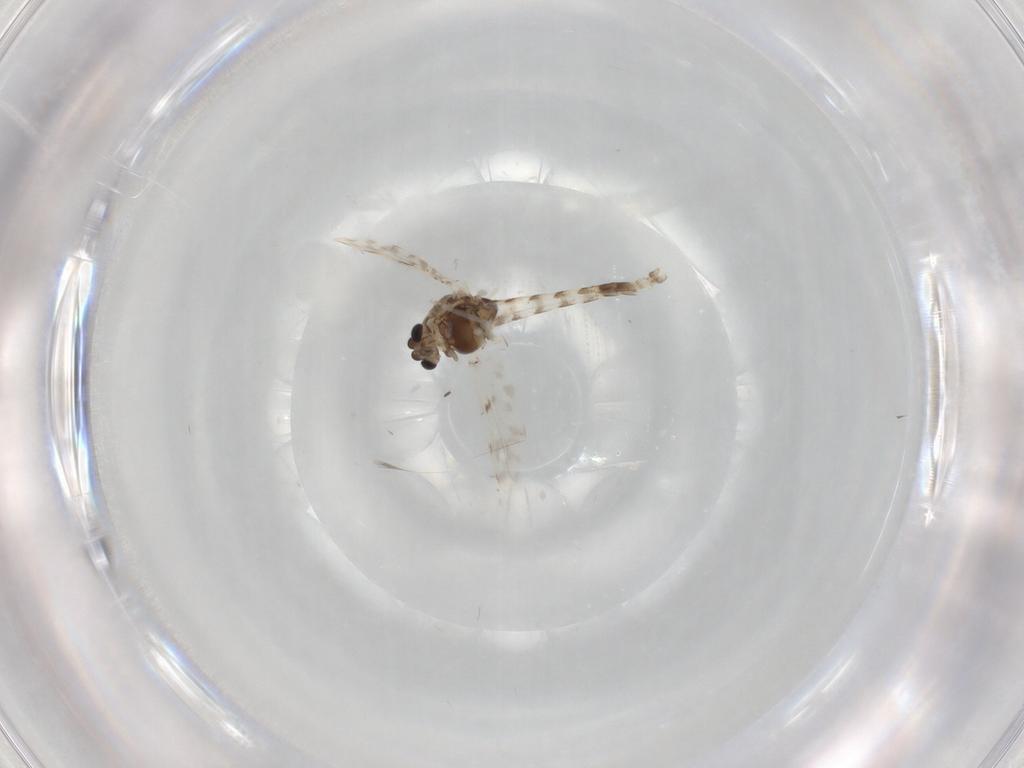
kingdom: Animalia
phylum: Arthropoda
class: Insecta
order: Diptera
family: Chironomidae
